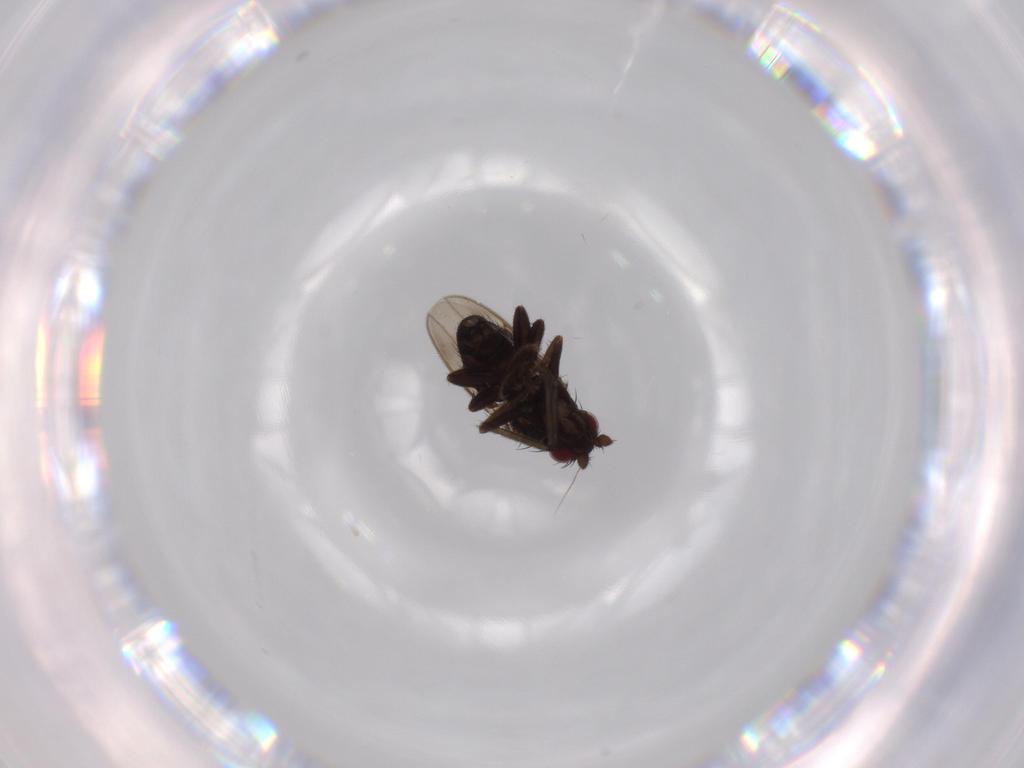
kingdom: Animalia
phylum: Arthropoda
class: Insecta
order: Diptera
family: Sphaeroceridae
